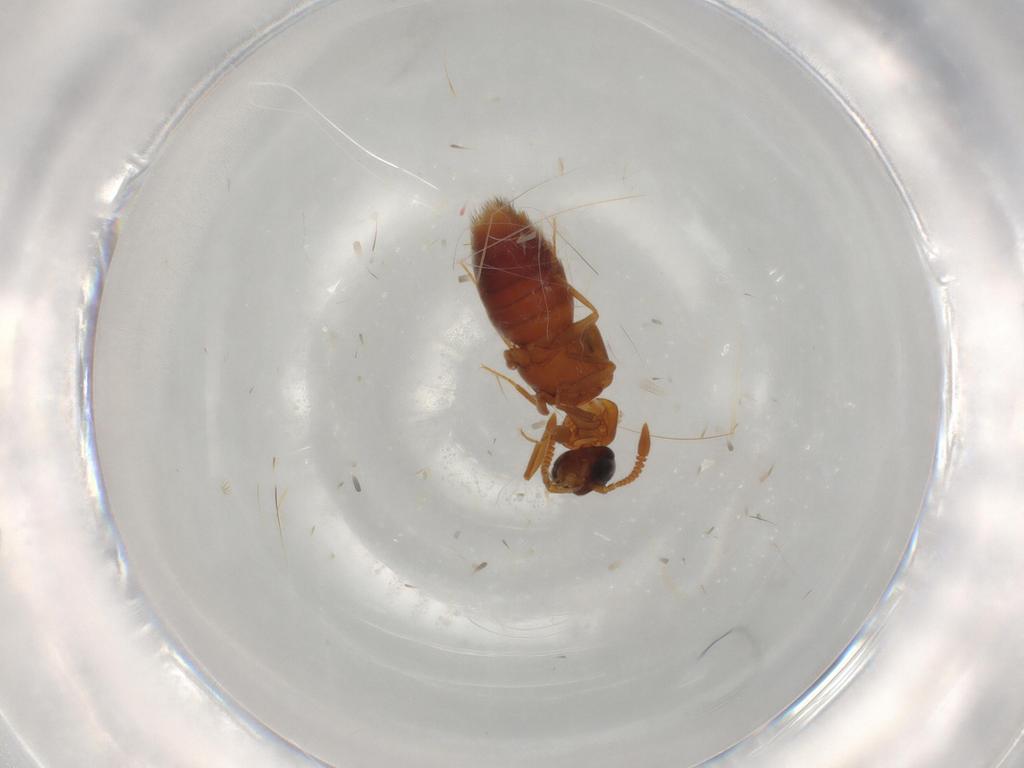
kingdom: Animalia
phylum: Arthropoda
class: Insecta
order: Coleoptera
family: Staphylinidae
